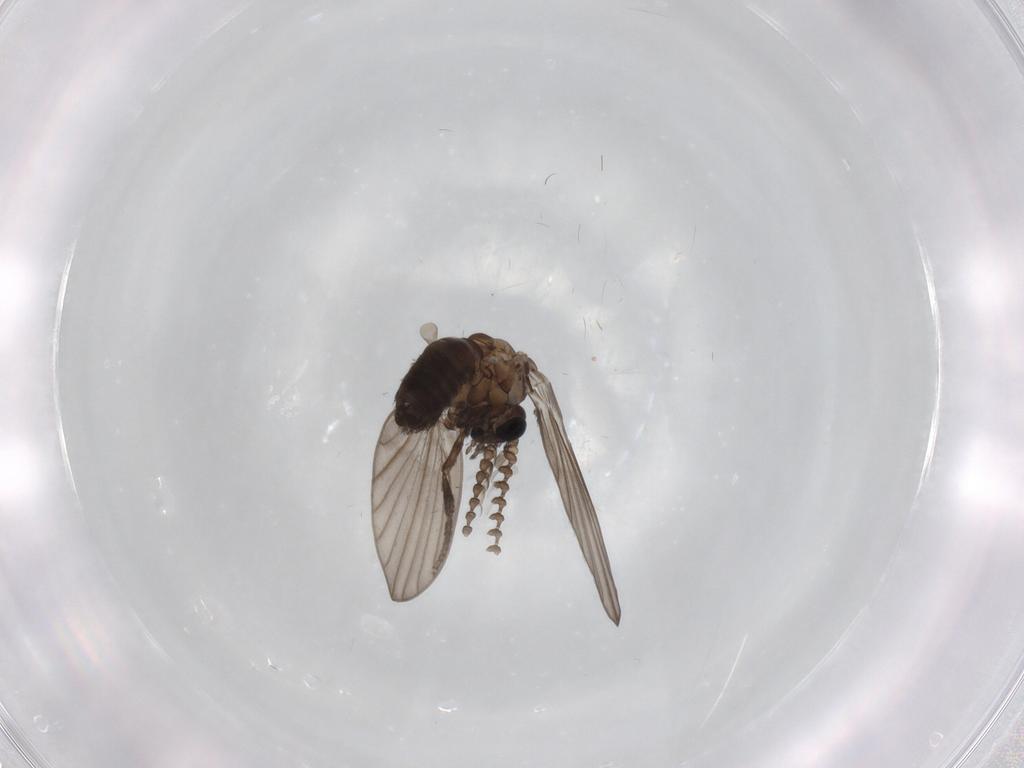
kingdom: Animalia
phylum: Arthropoda
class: Insecta
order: Diptera
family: Psychodidae
